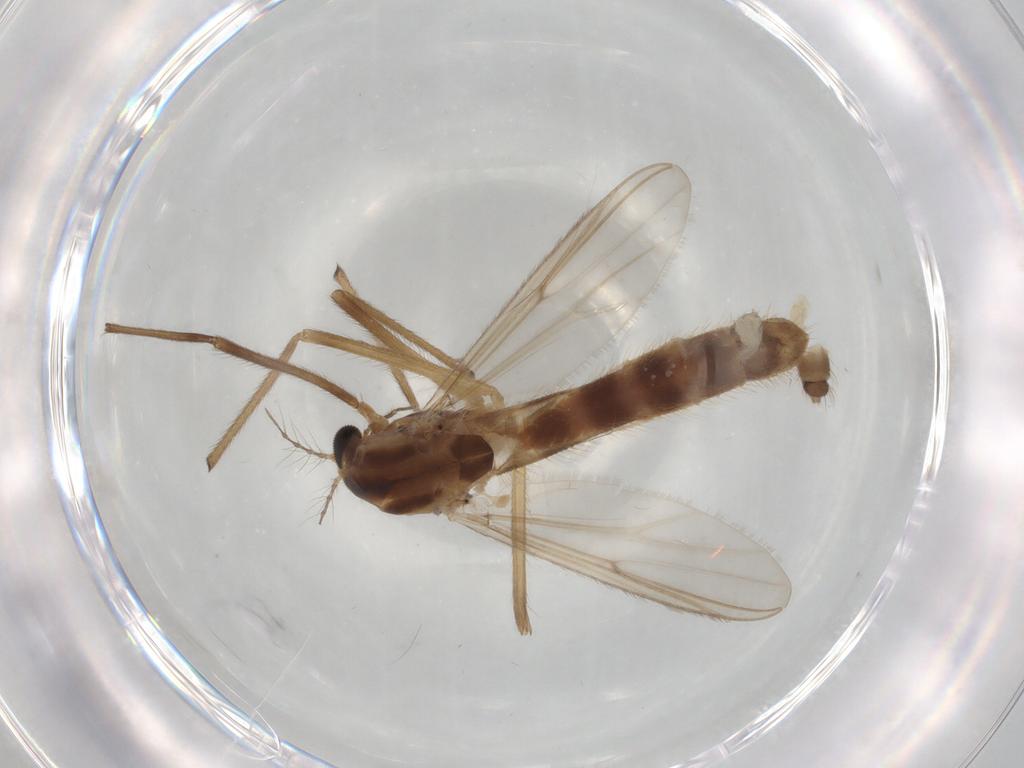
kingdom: Animalia
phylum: Arthropoda
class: Insecta
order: Diptera
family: Chironomidae
